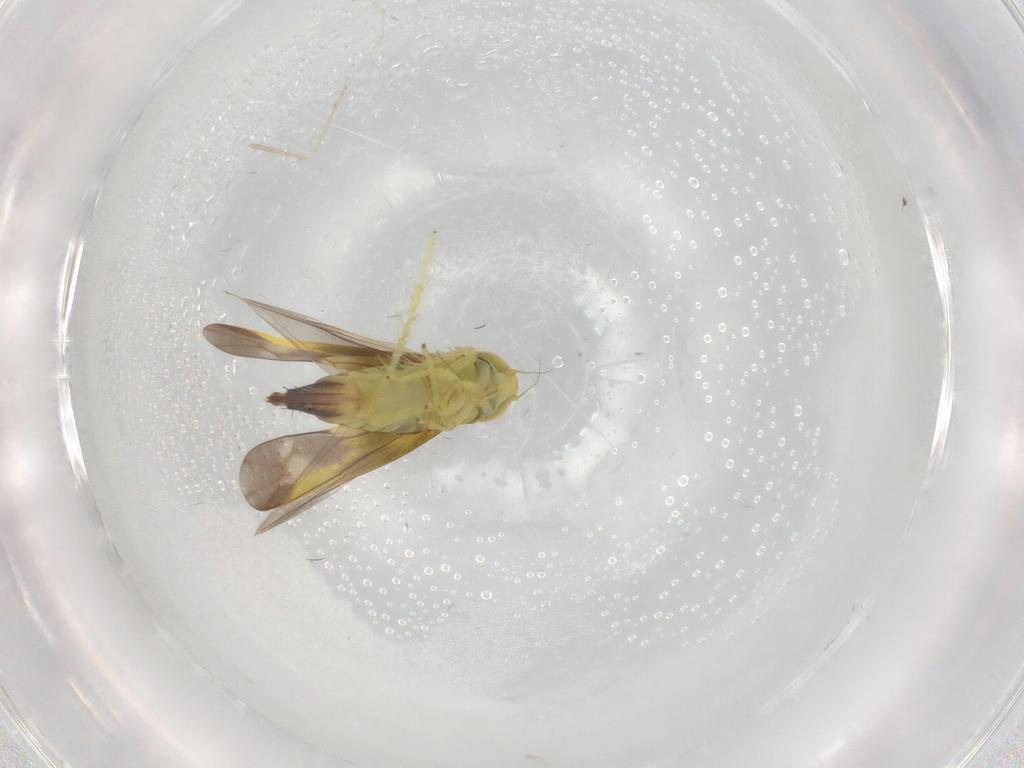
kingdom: Animalia
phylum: Arthropoda
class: Insecta
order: Hemiptera
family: Cicadellidae
